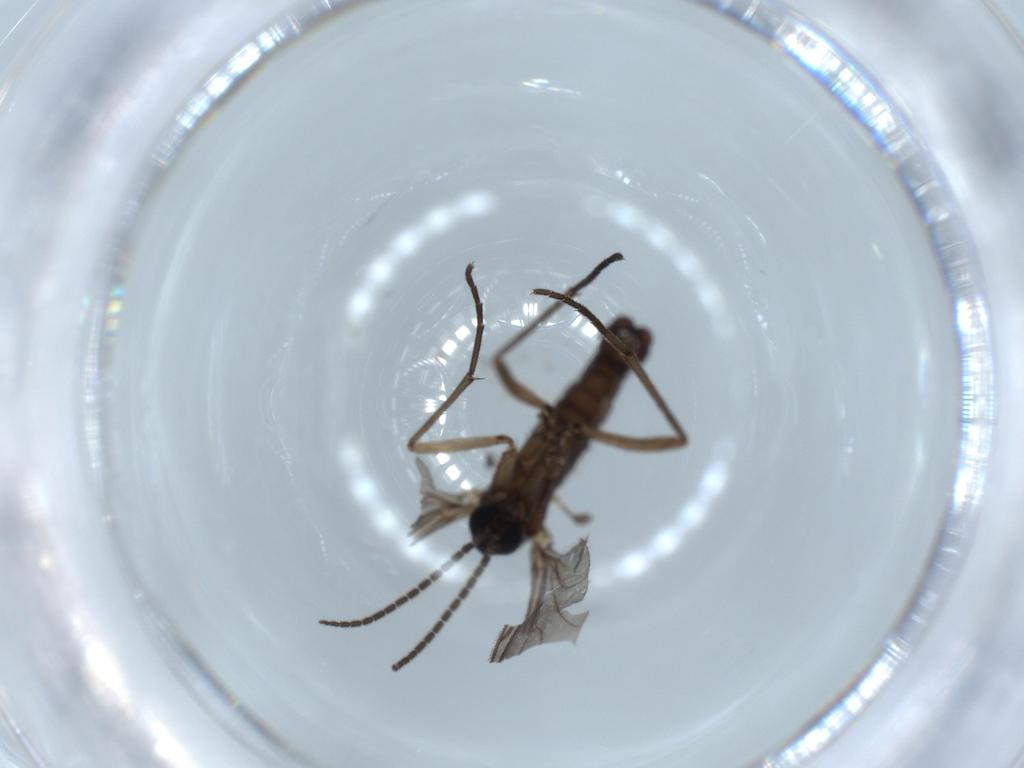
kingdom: Animalia
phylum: Arthropoda
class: Insecta
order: Diptera
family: Sciaridae
